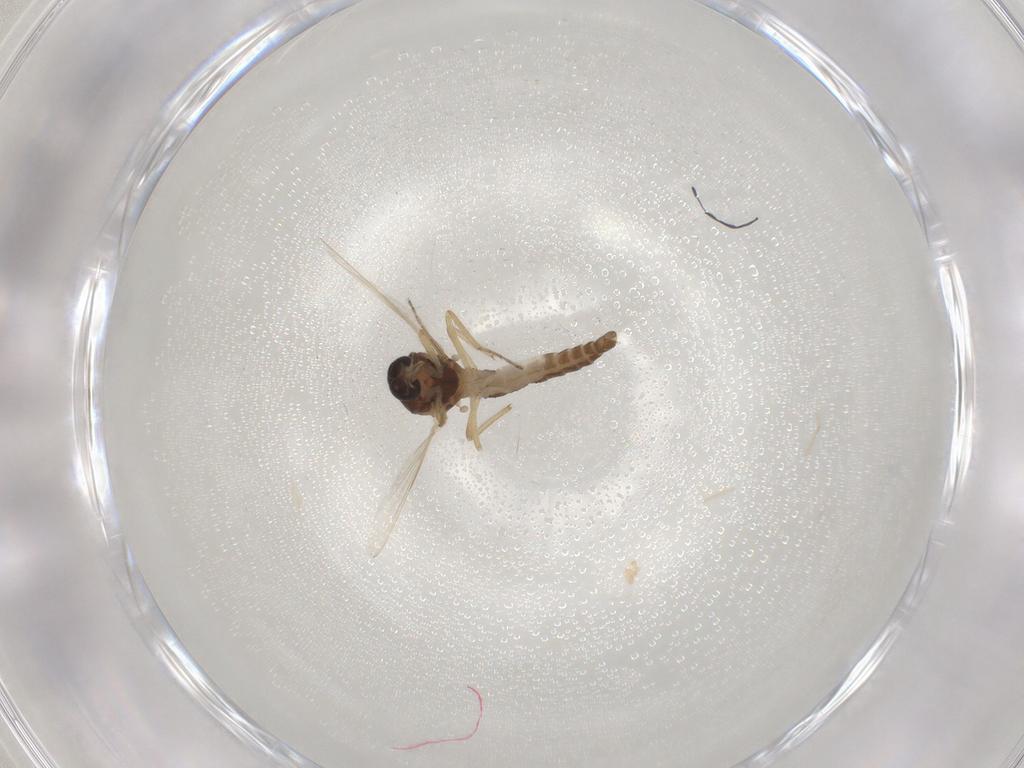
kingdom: Animalia
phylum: Arthropoda
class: Insecta
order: Diptera
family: Ceratopogonidae
